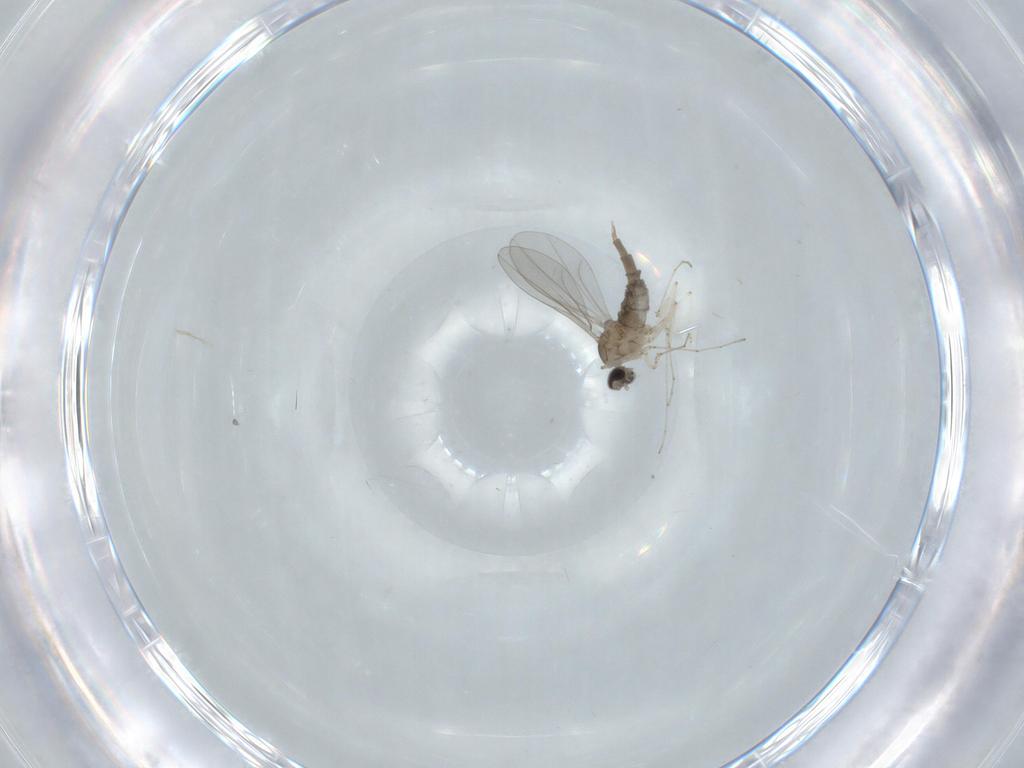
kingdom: Animalia
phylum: Arthropoda
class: Insecta
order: Diptera
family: Cecidomyiidae
